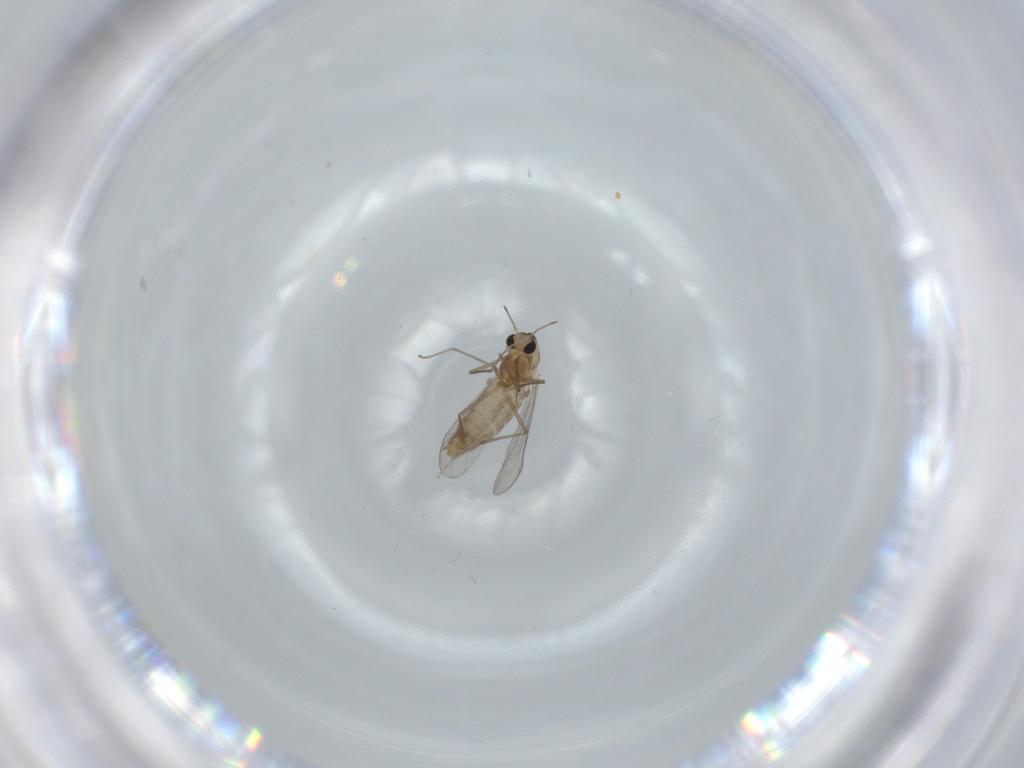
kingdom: Animalia
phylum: Arthropoda
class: Insecta
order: Diptera
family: Chironomidae
